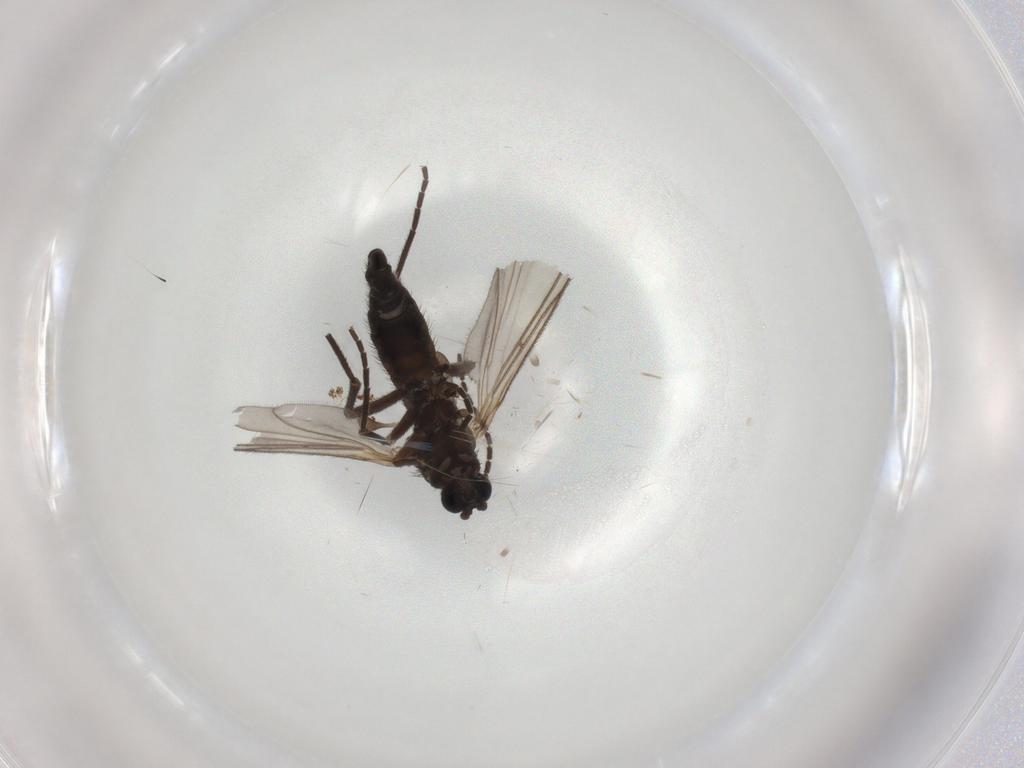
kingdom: Animalia
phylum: Arthropoda
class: Insecta
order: Diptera
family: Sciaridae
